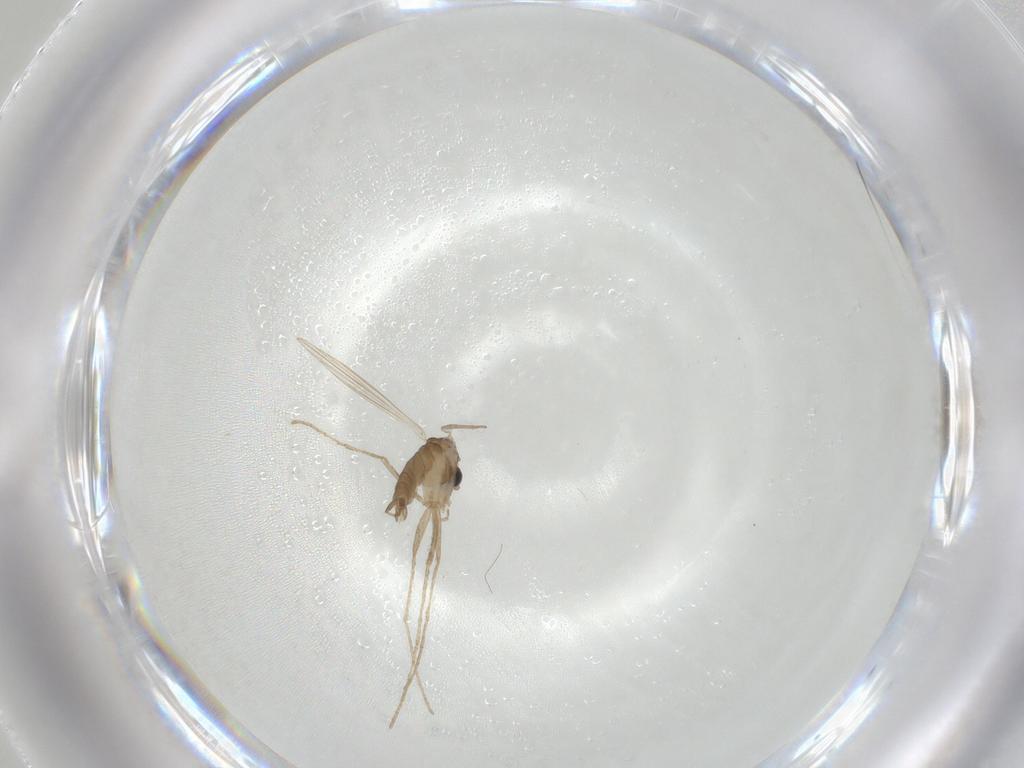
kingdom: Animalia
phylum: Arthropoda
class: Insecta
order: Diptera
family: Psychodidae
